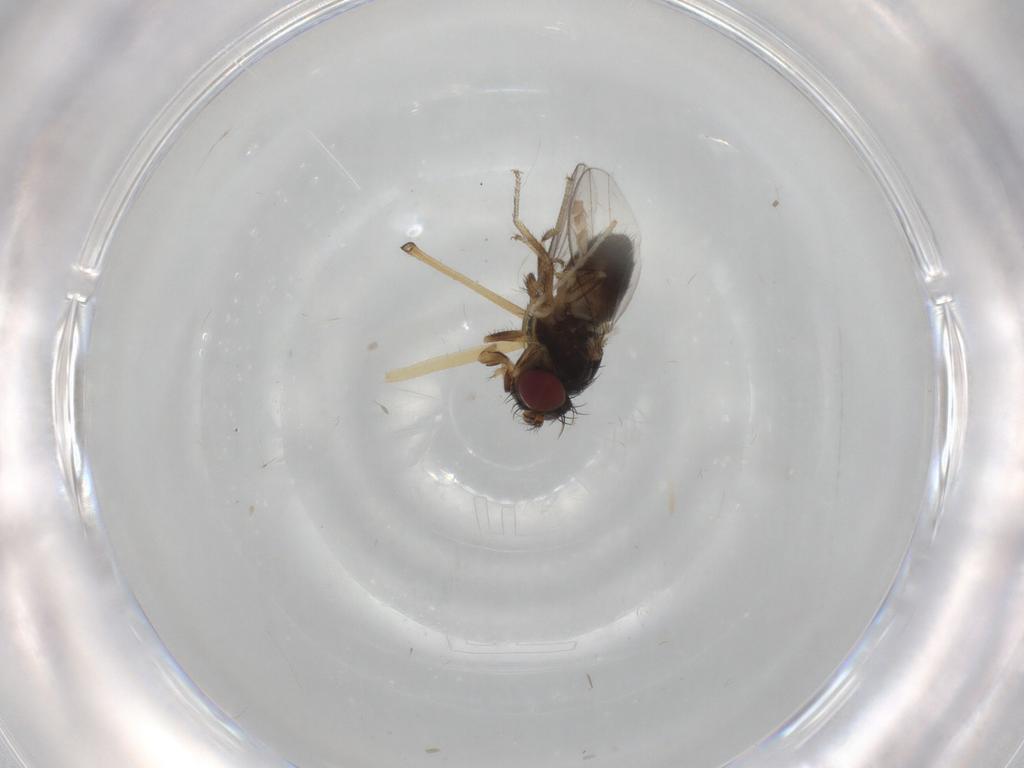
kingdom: Animalia
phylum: Arthropoda
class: Insecta
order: Diptera
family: Ephydridae
